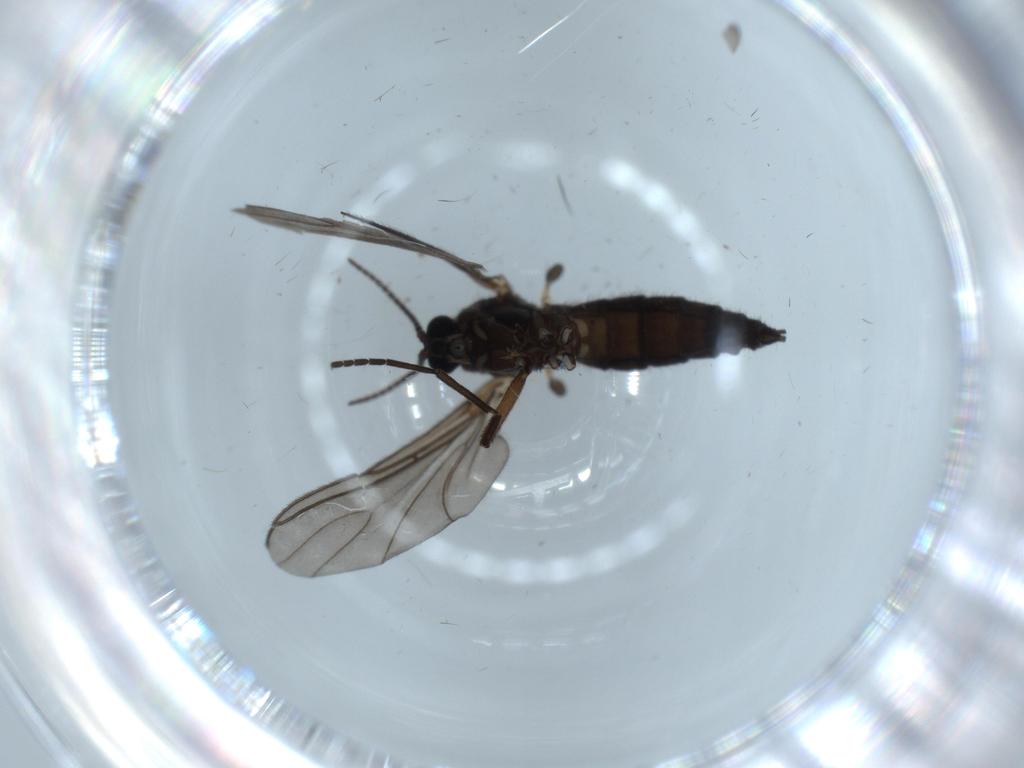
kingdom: Animalia
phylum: Arthropoda
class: Insecta
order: Diptera
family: Sciaridae
